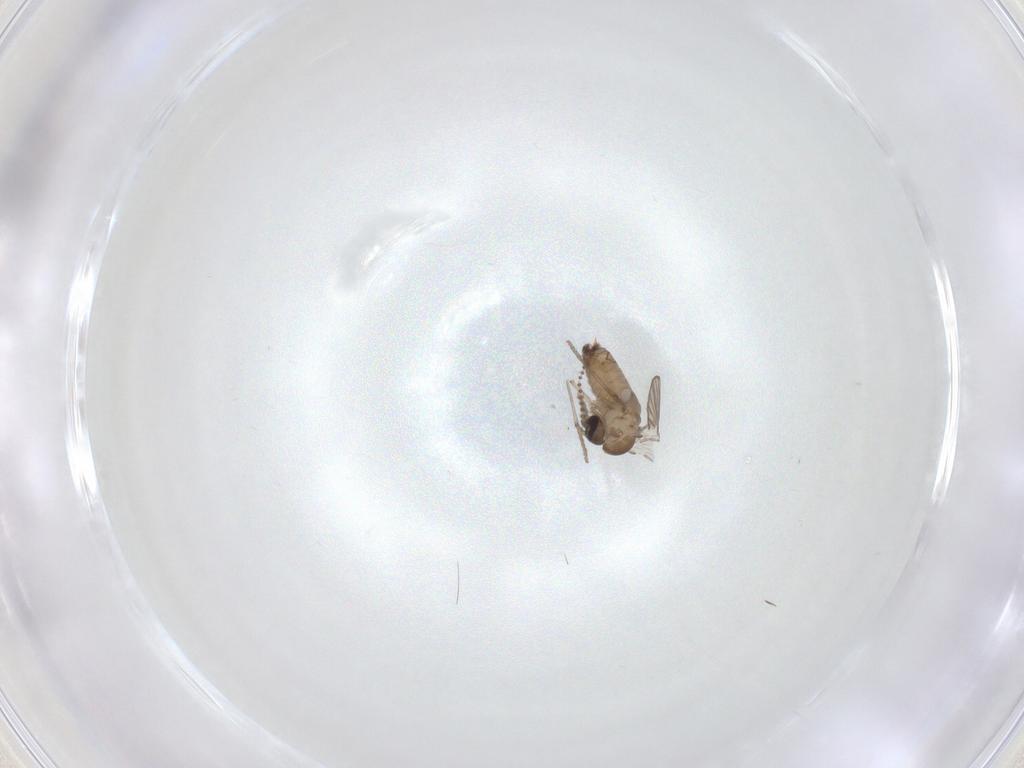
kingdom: Animalia
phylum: Arthropoda
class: Insecta
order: Diptera
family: Psychodidae
